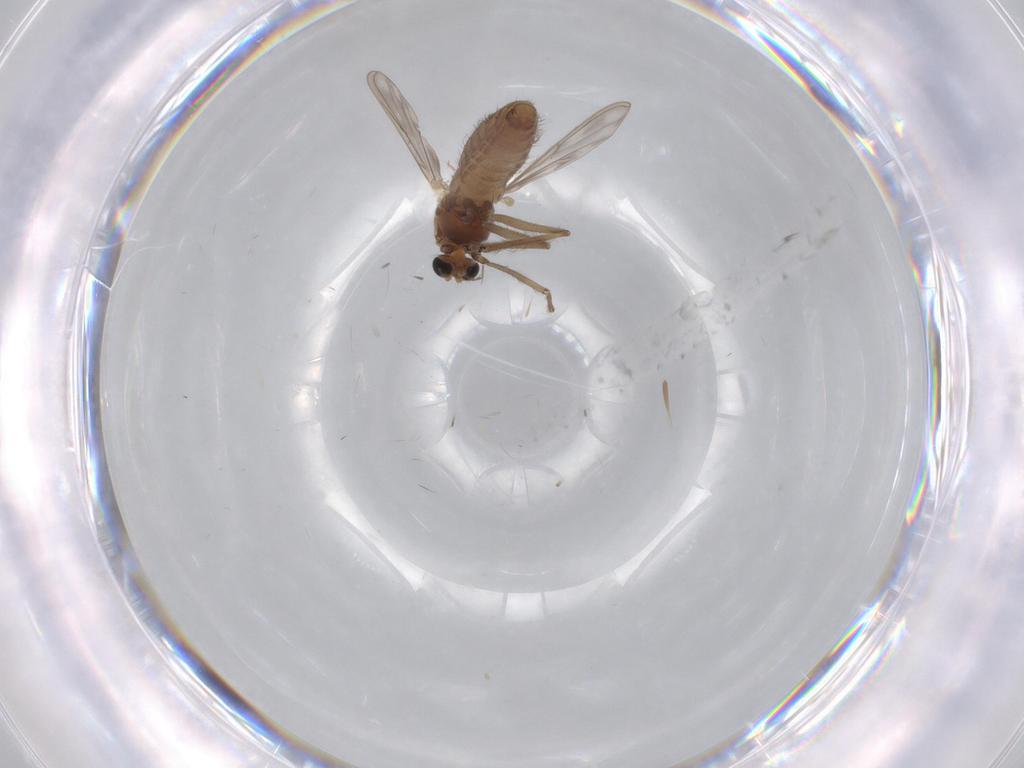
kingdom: Animalia
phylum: Arthropoda
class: Insecta
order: Diptera
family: Chironomidae
